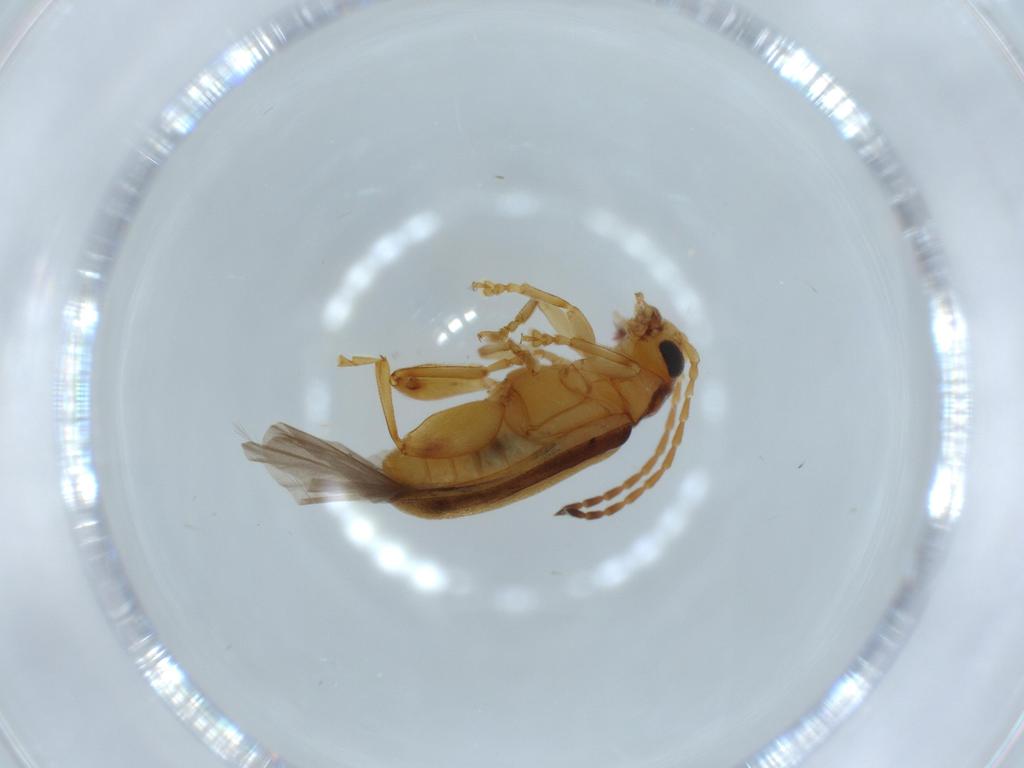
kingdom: Animalia
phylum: Arthropoda
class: Insecta
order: Coleoptera
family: Chrysomelidae
